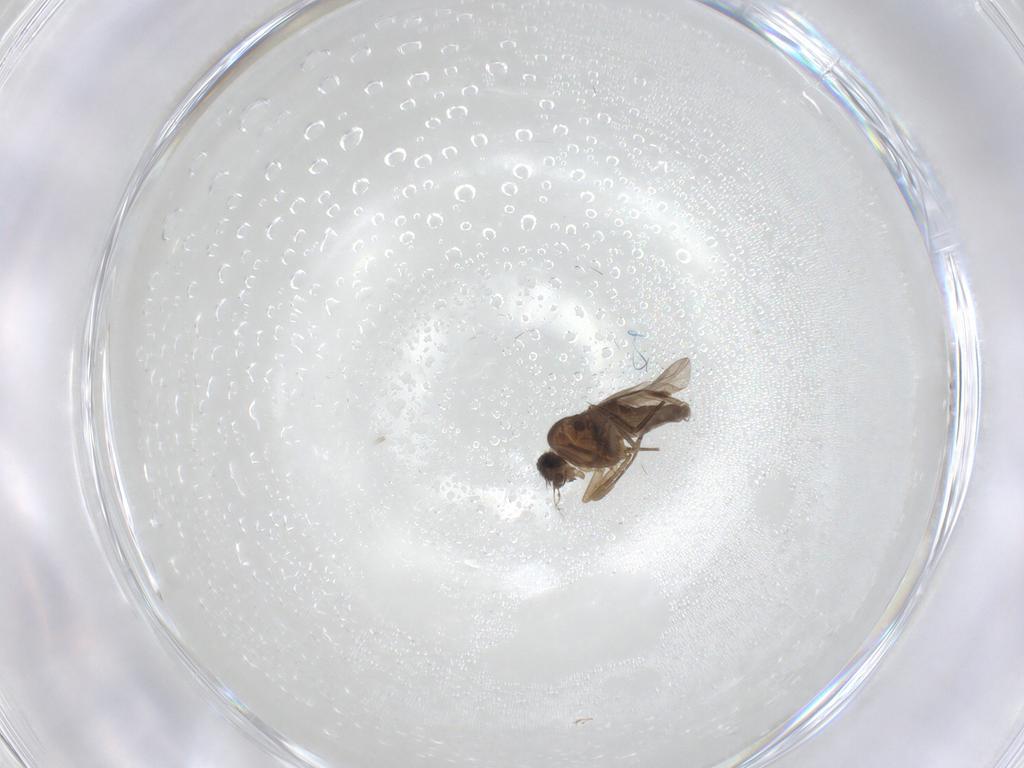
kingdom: Animalia
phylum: Arthropoda
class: Insecta
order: Diptera
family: Phoridae
